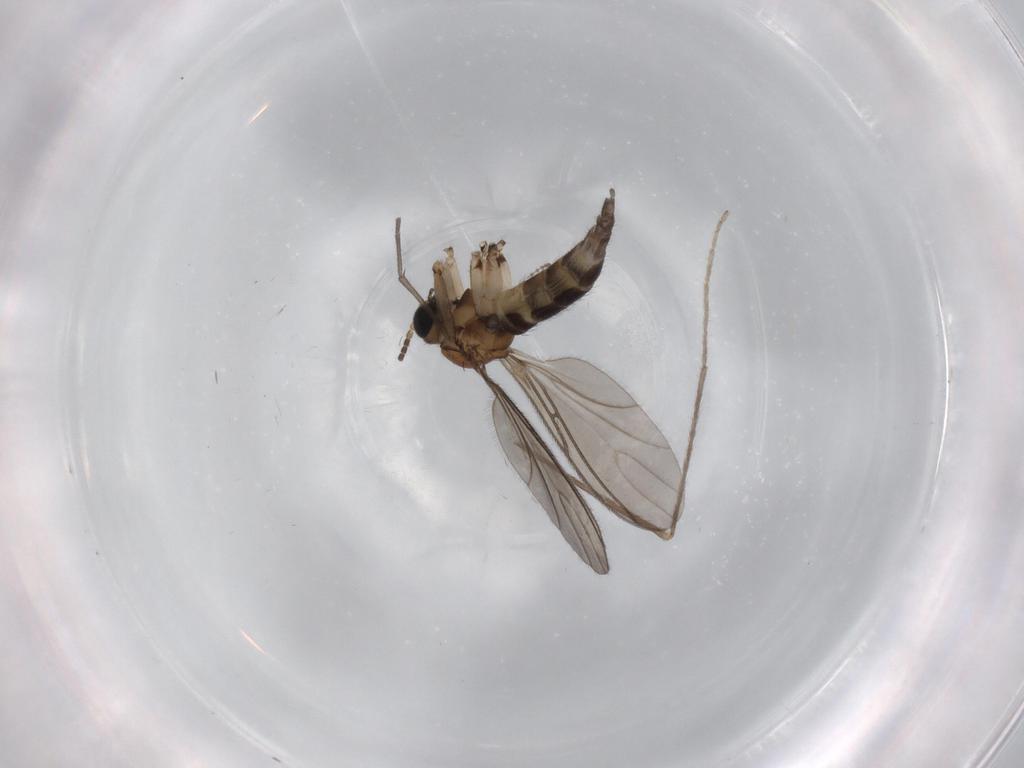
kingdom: Animalia
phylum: Arthropoda
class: Insecta
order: Diptera
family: Sciaridae
